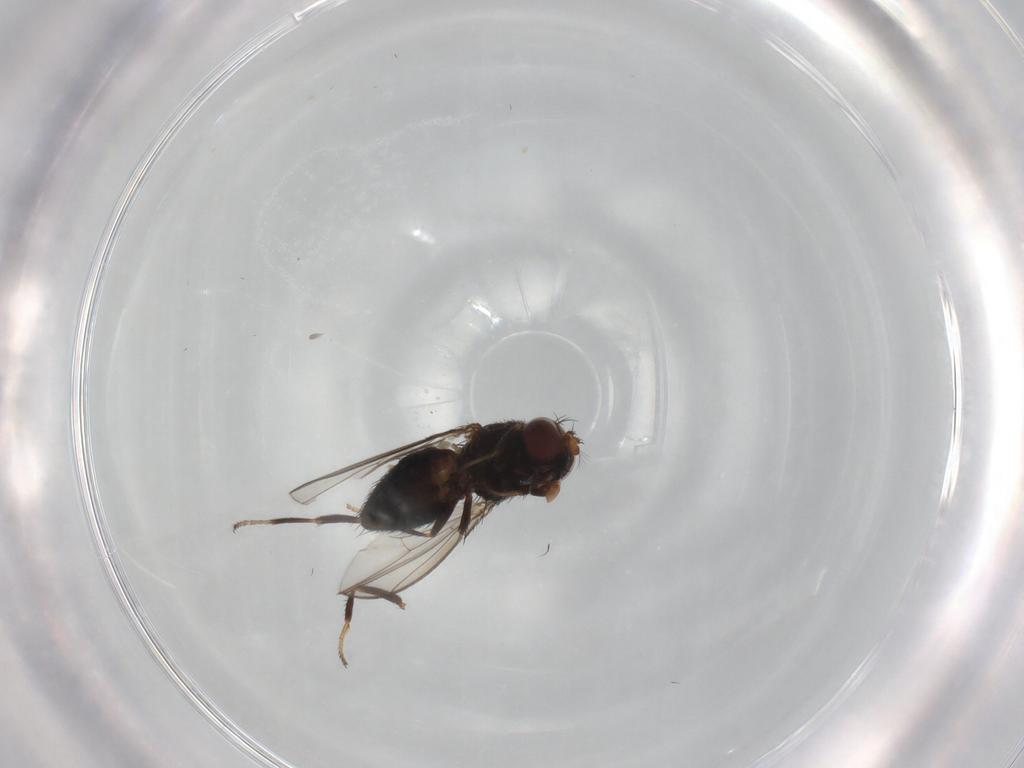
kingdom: Animalia
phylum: Arthropoda
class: Insecta
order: Diptera
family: Ephydridae
